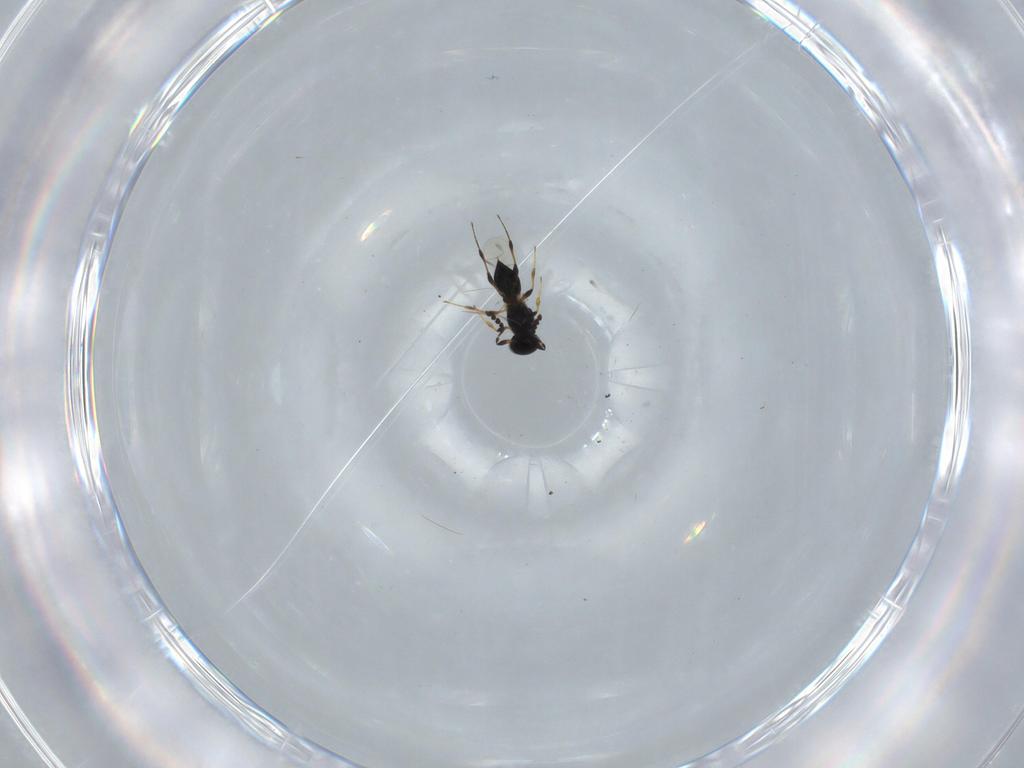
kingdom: Animalia
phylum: Arthropoda
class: Insecta
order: Hymenoptera
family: Platygastridae
